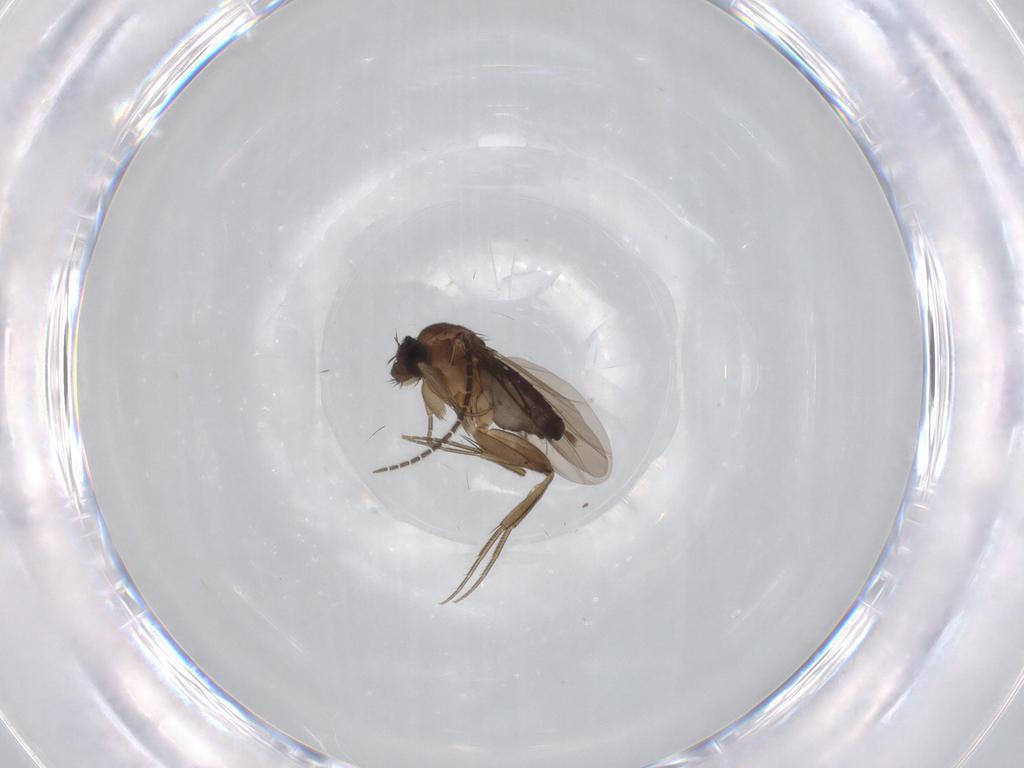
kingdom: Animalia
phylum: Arthropoda
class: Insecta
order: Diptera
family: Phoridae
